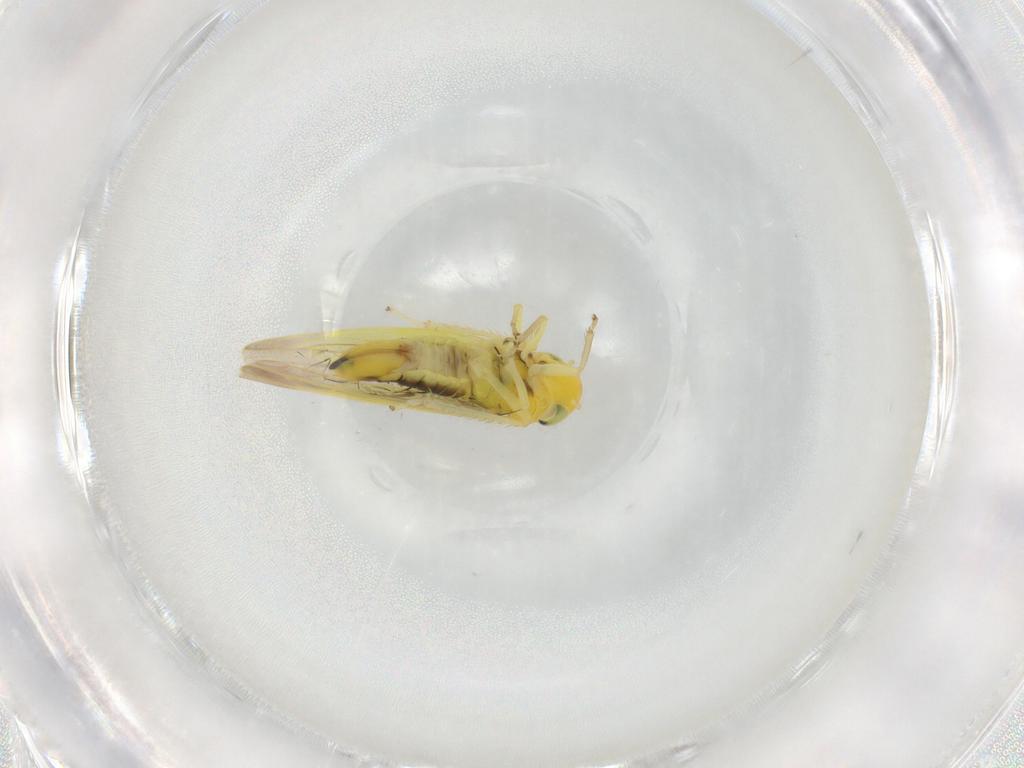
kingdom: Animalia
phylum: Arthropoda
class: Insecta
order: Hemiptera
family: Cicadellidae
